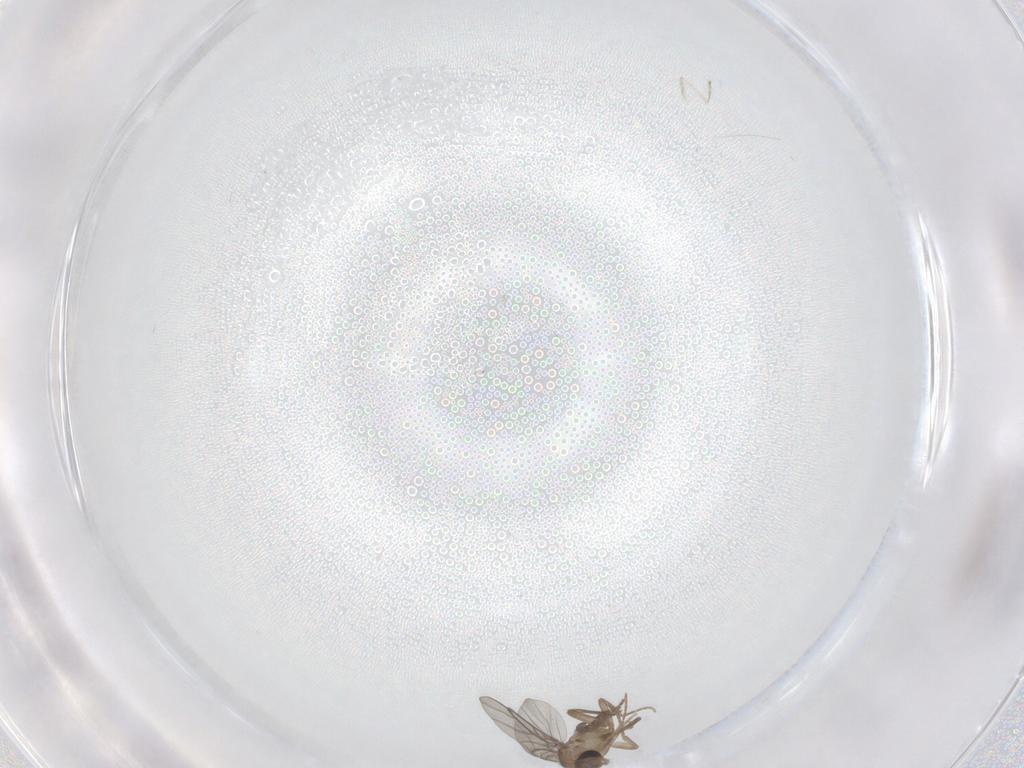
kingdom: Animalia
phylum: Arthropoda
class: Insecta
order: Diptera
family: Cecidomyiidae
